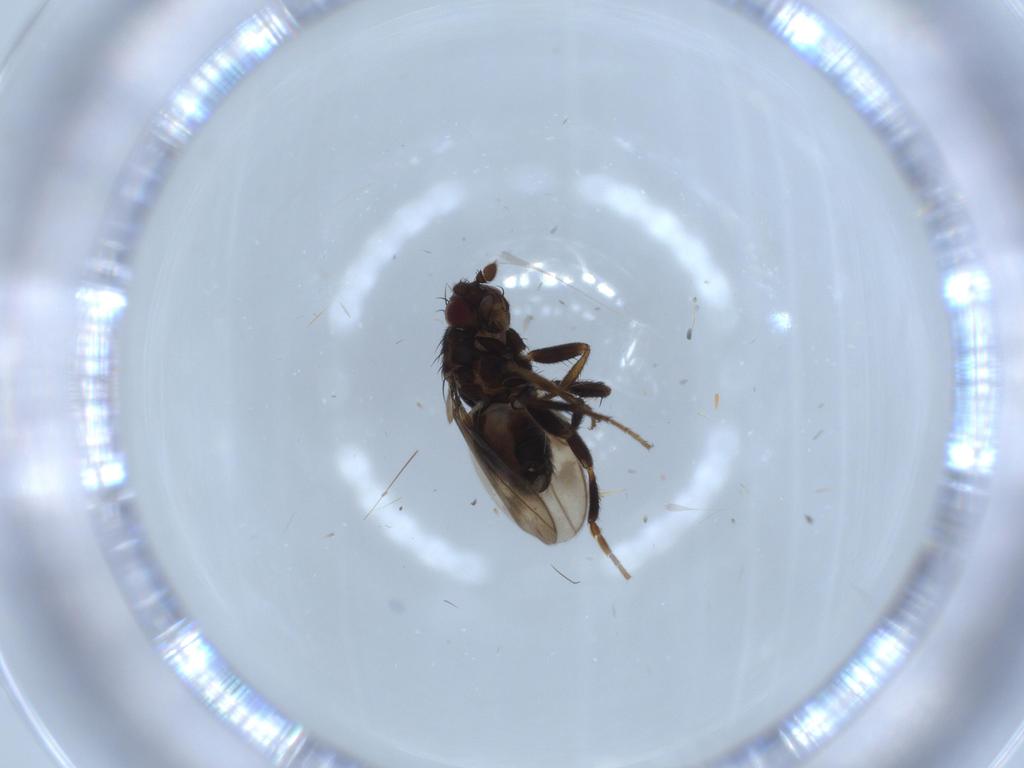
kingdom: Animalia
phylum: Arthropoda
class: Insecta
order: Diptera
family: Sphaeroceridae
